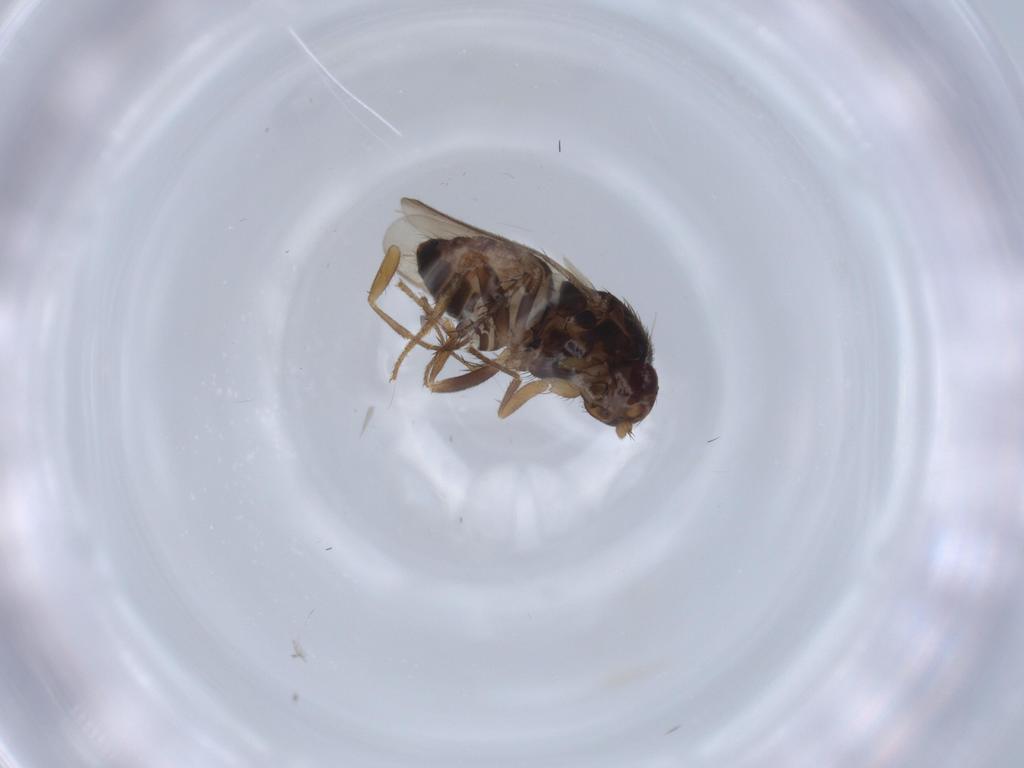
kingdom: Animalia
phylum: Arthropoda
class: Insecta
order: Diptera
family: Sphaeroceridae
